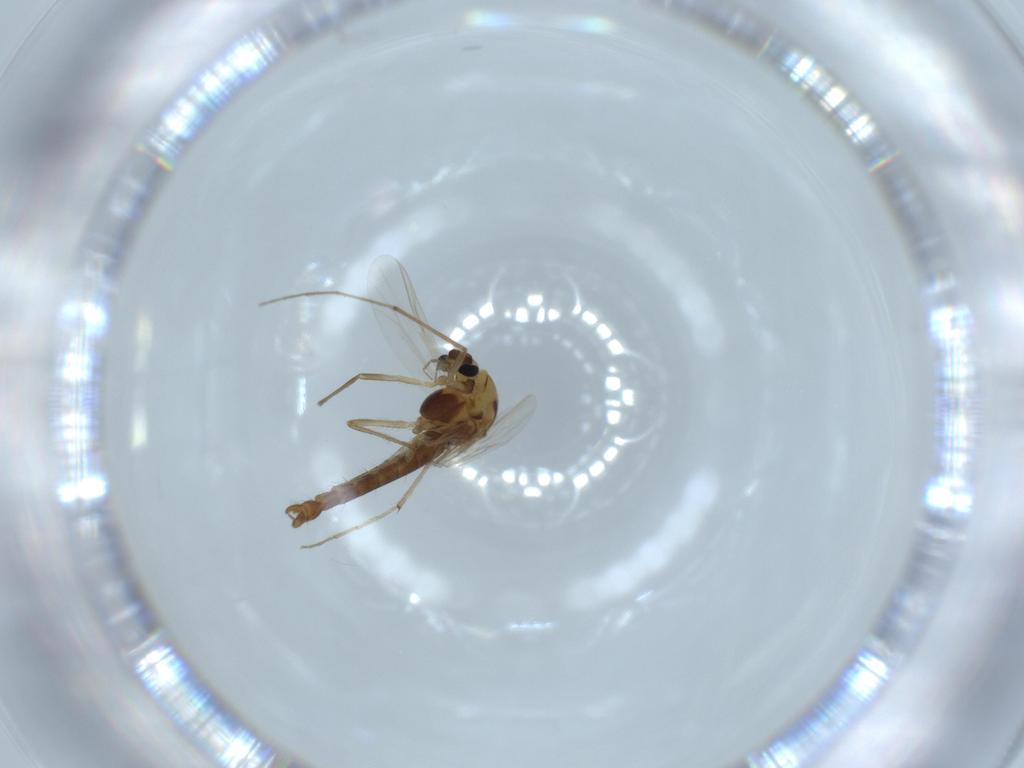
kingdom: Animalia
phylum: Arthropoda
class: Insecta
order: Diptera
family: Chironomidae
